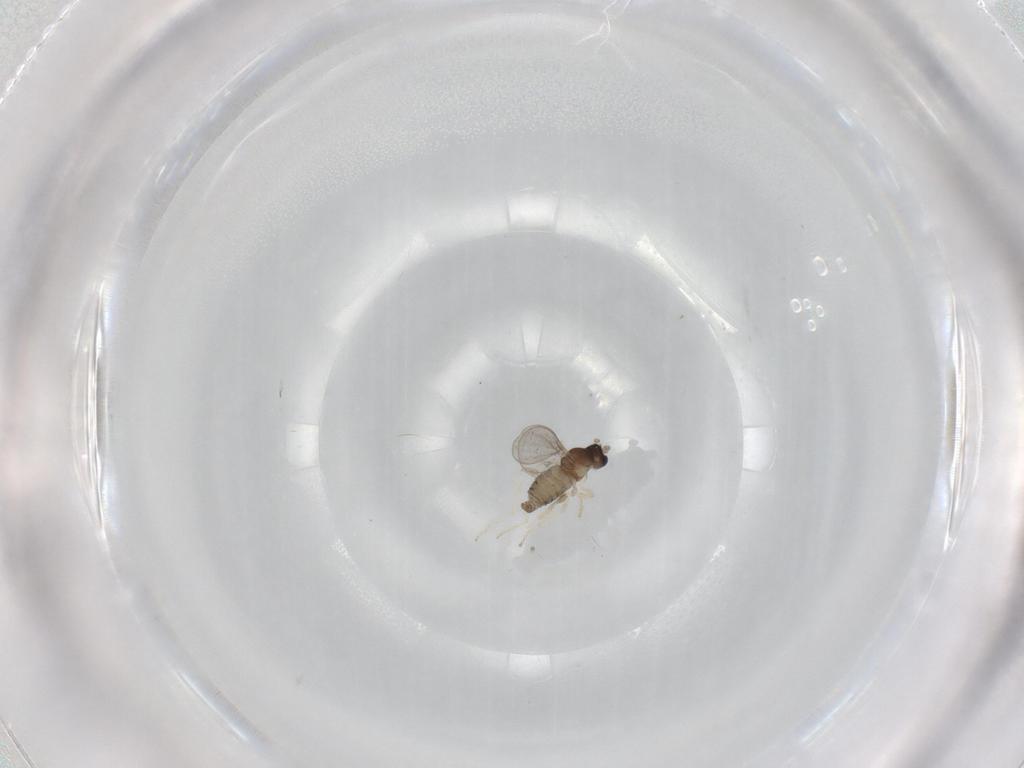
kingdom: Animalia
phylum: Arthropoda
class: Insecta
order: Diptera
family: Cecidomyiidae
